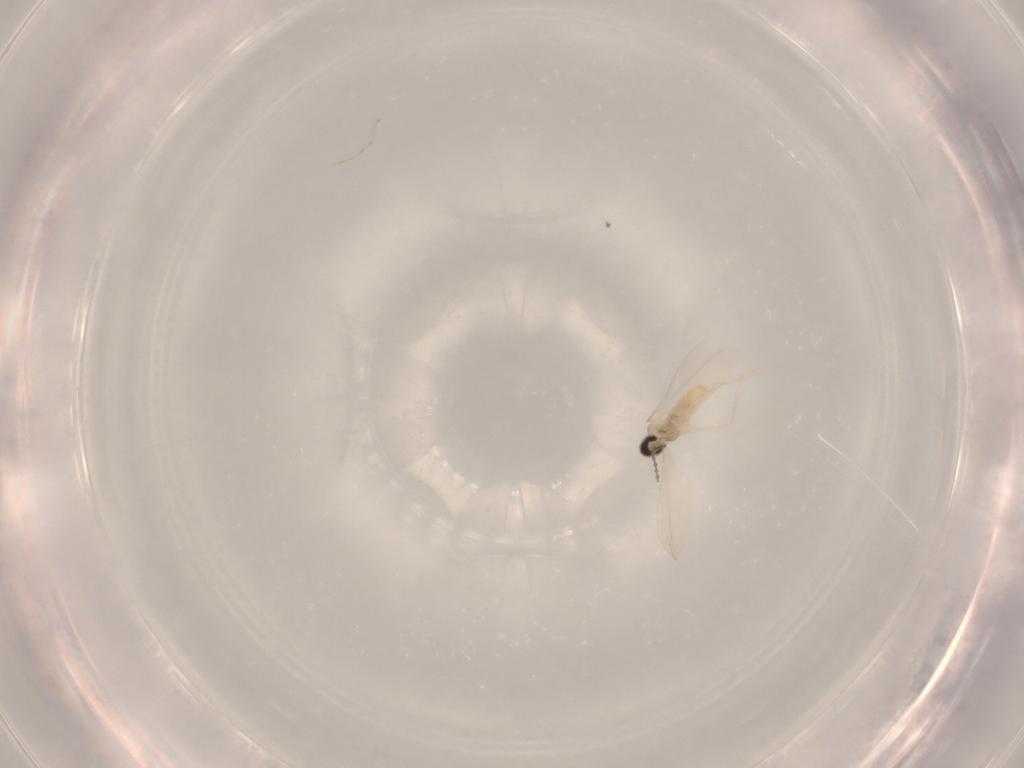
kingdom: Animalia
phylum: Arthropoda
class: Insecta
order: Diptera
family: Cecidomyiidae
